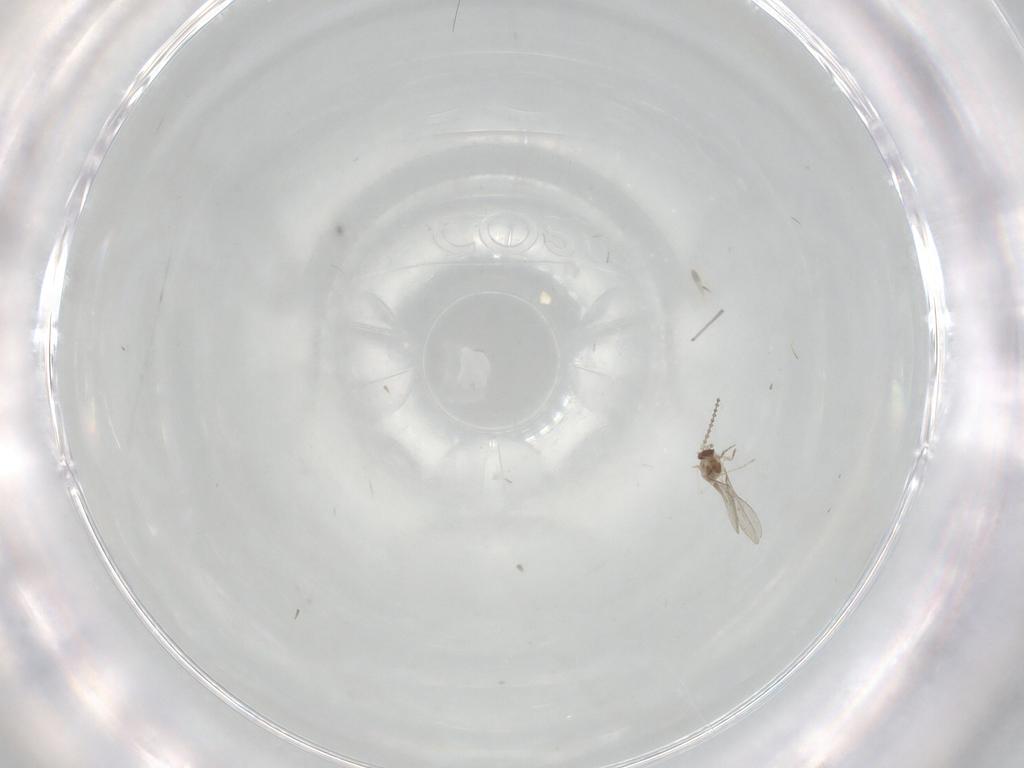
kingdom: Animalia
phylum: Arthropoda
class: Insecta
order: Diptera
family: Cecidomyiidae
